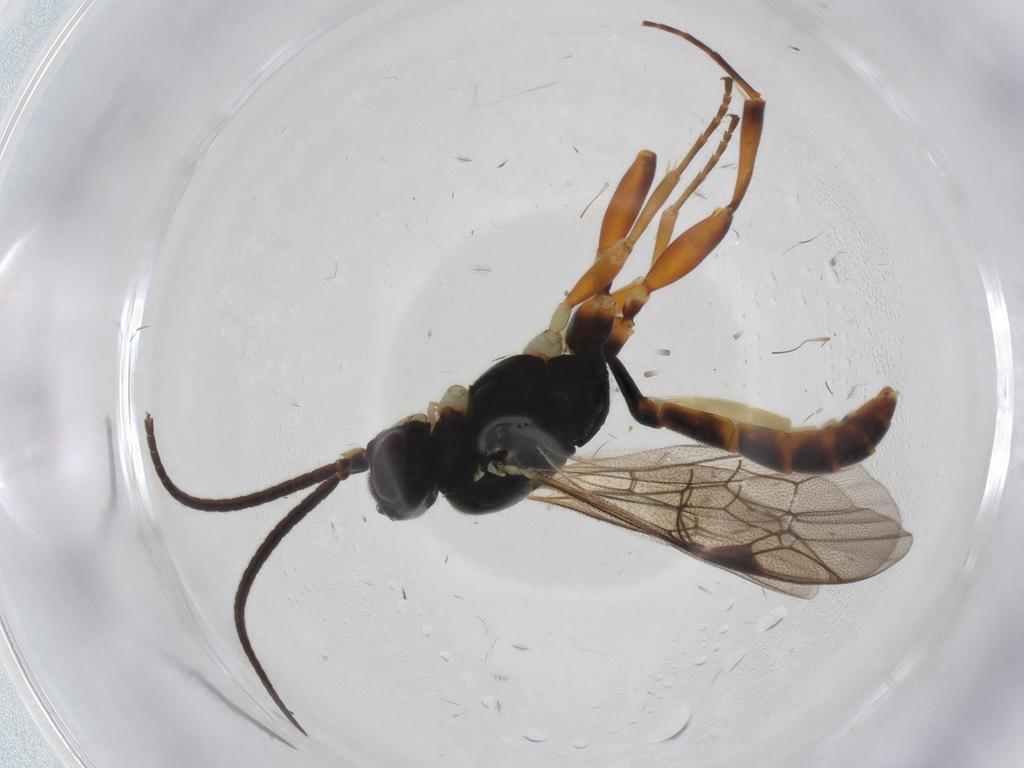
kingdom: Animalia
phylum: Arthropoda
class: Insecta
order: Hymenoptera
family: Ichneumonidae
